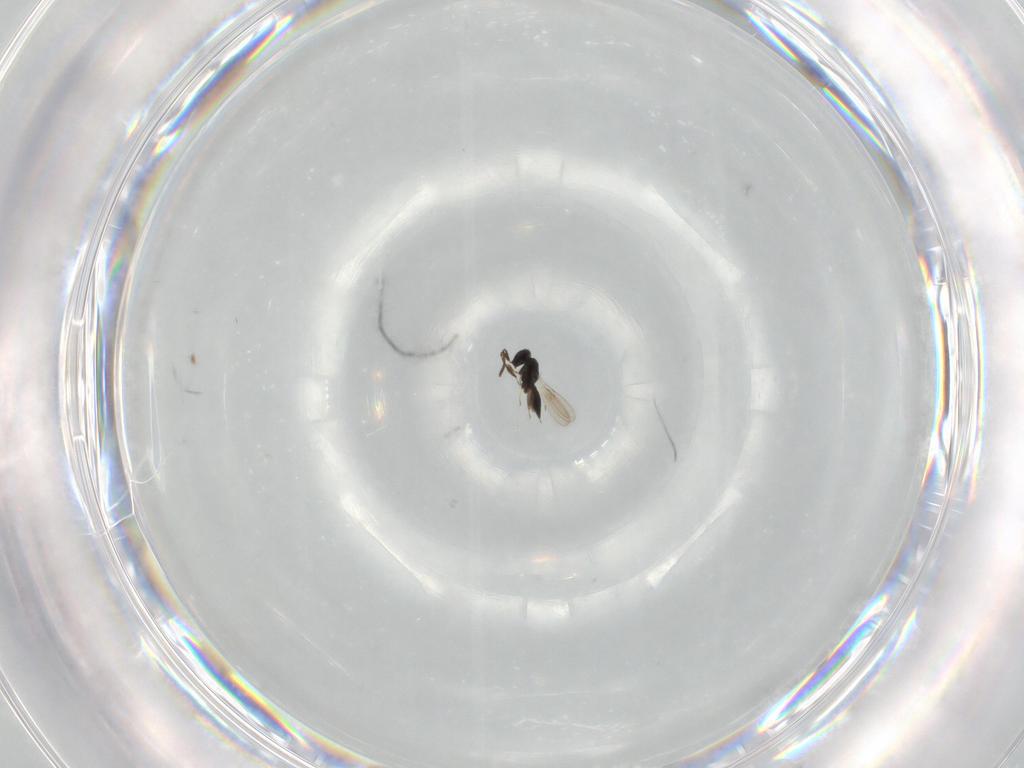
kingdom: Animalia
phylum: Arthropoda
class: Insecta
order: Hymenoptera
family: Scelionidae
